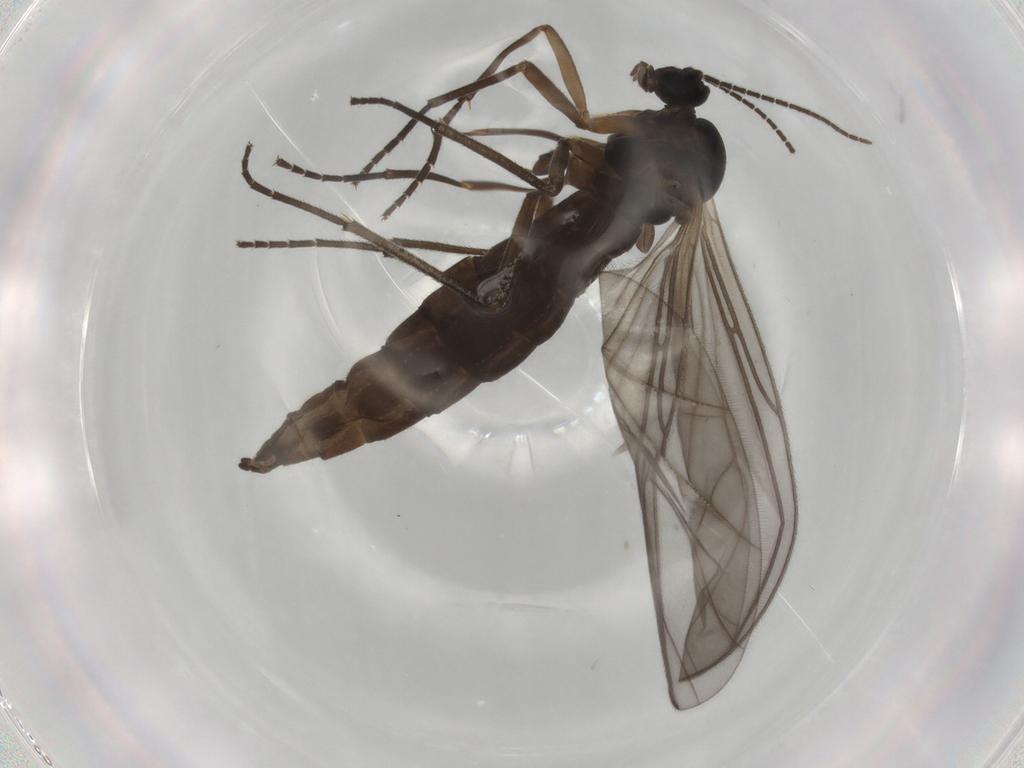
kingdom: Animalia
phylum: Arthropoda
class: Insecta
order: Diptera
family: Sciaridae
